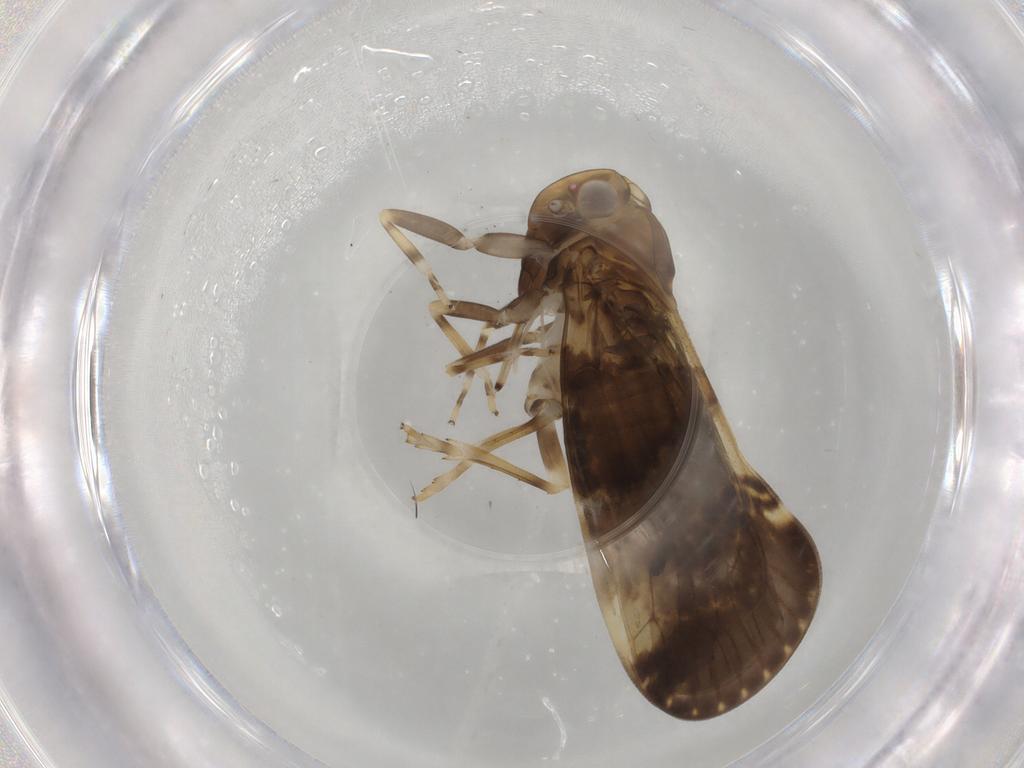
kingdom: Animalia
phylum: Arthropoda
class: Insecta
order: Hemiptera
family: Cixiidae
